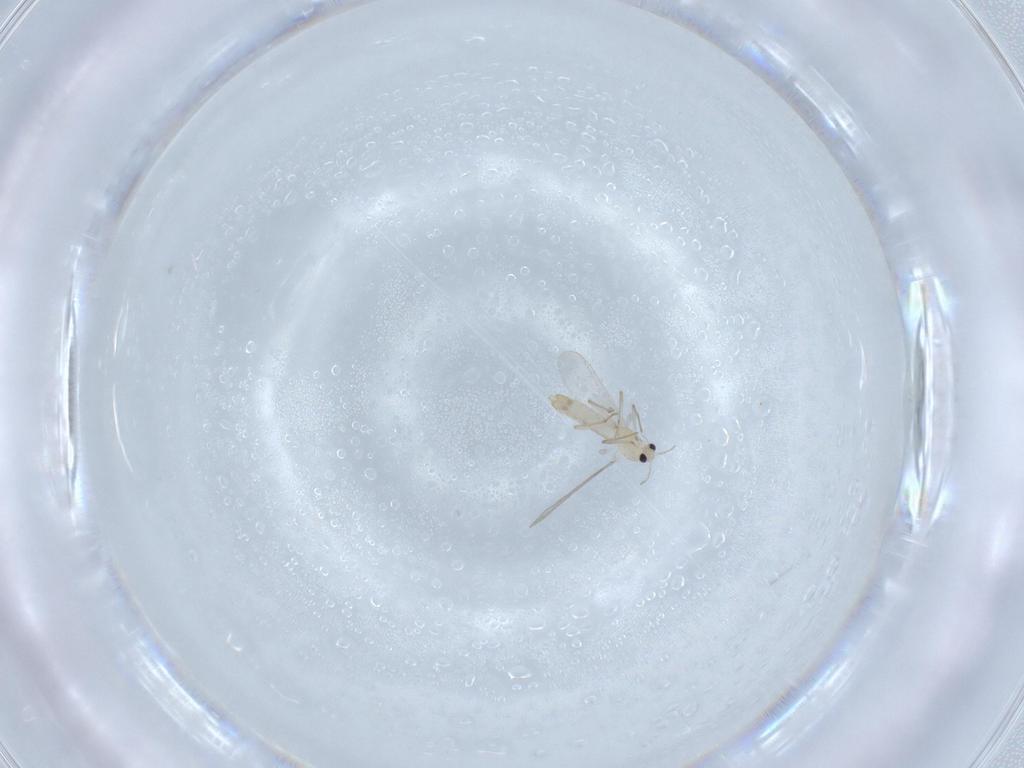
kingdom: Animalia
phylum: Arthropoda
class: Insecta
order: Diptera
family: Chironomidae
